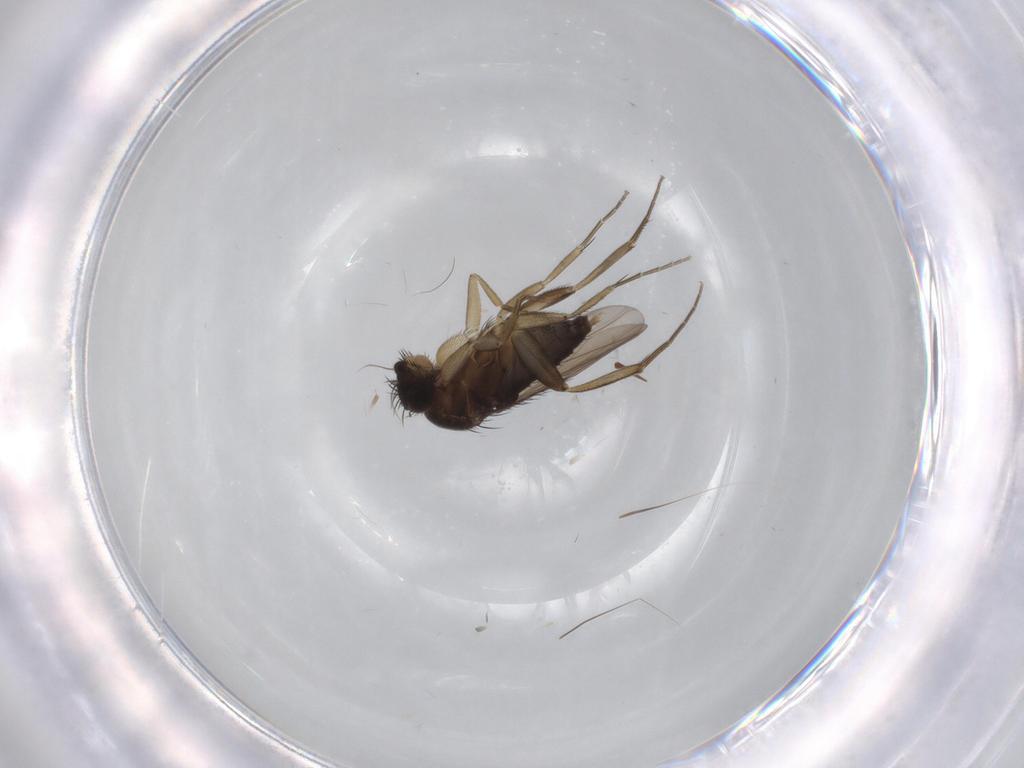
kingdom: Animalia
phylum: Arthropoda
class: Insecta
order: Diptera
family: Phoridae
